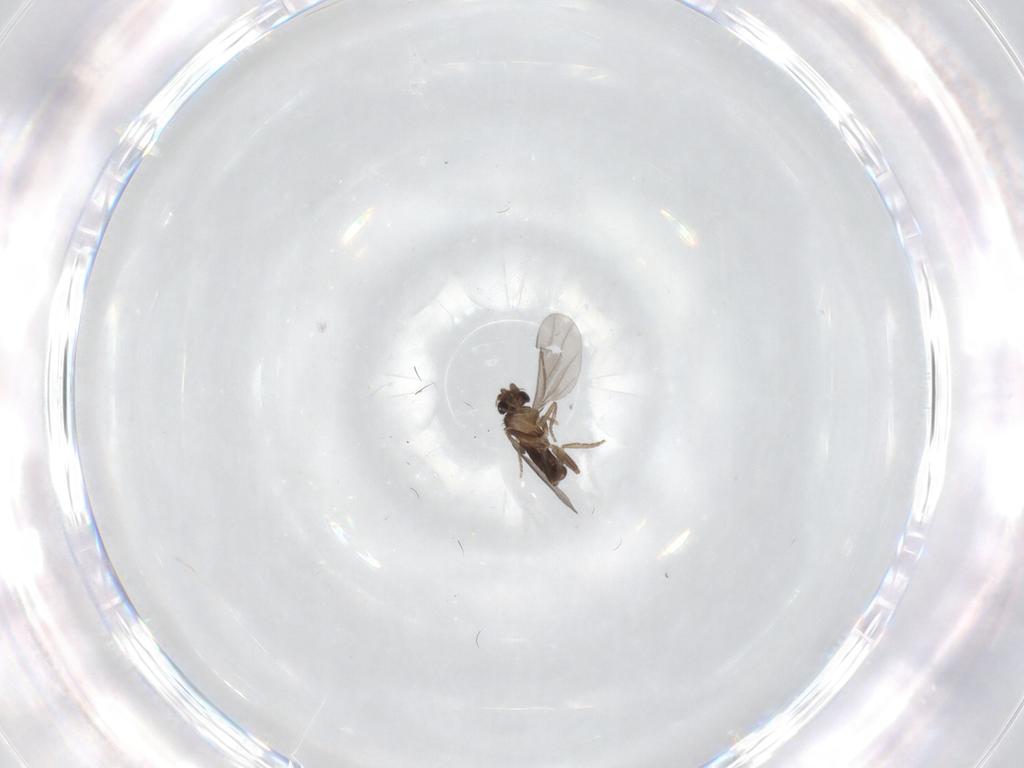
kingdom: Animalia
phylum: Arthropoda
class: Insecta
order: Diptera
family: Chironomidae
